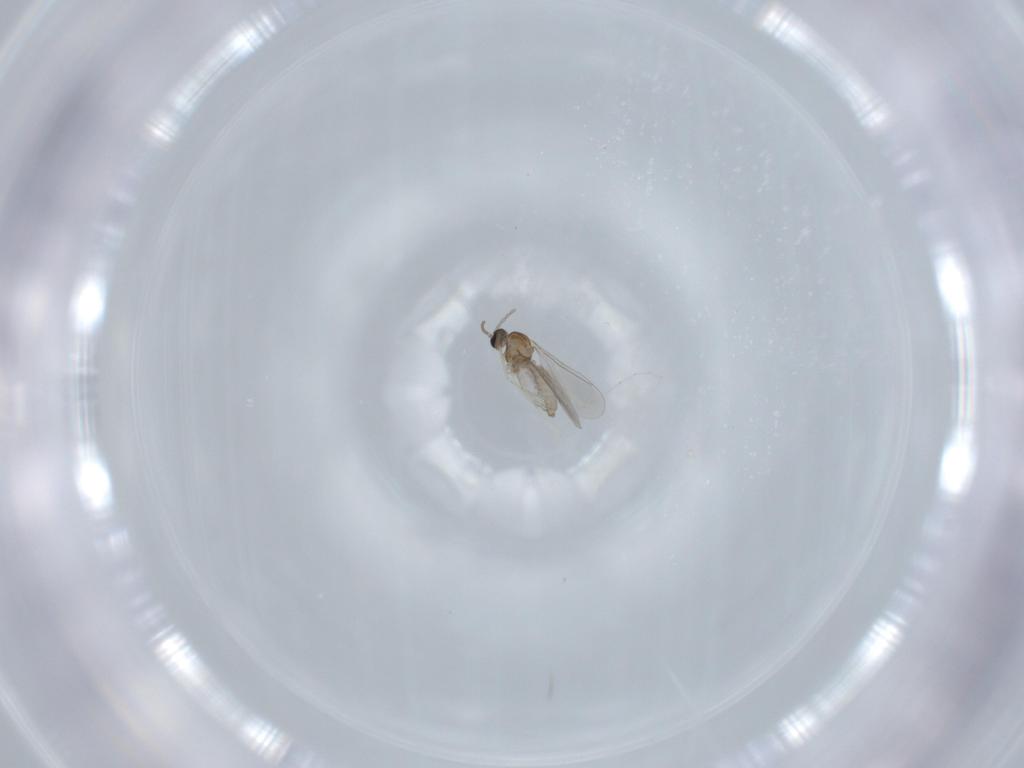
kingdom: Animalia
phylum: Arthropoda
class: Insecta
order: Diptera
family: Cecidomyiidae
